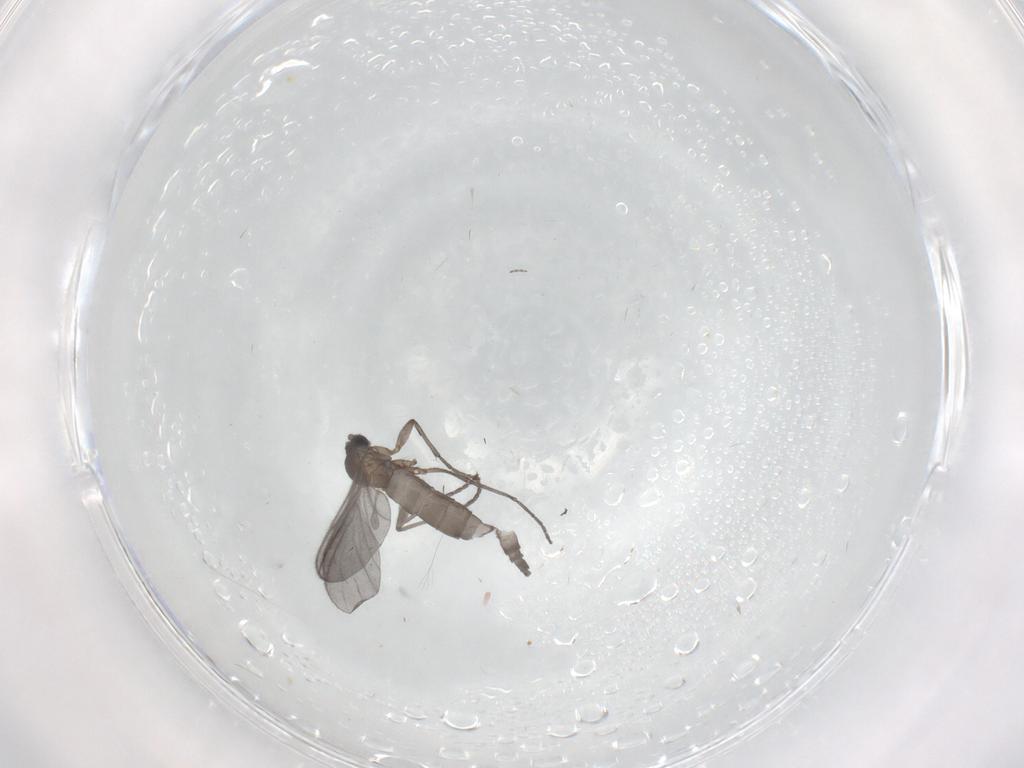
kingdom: Animalia
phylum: Arthropoda
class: Insecta
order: Diptera
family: Sciaridae
